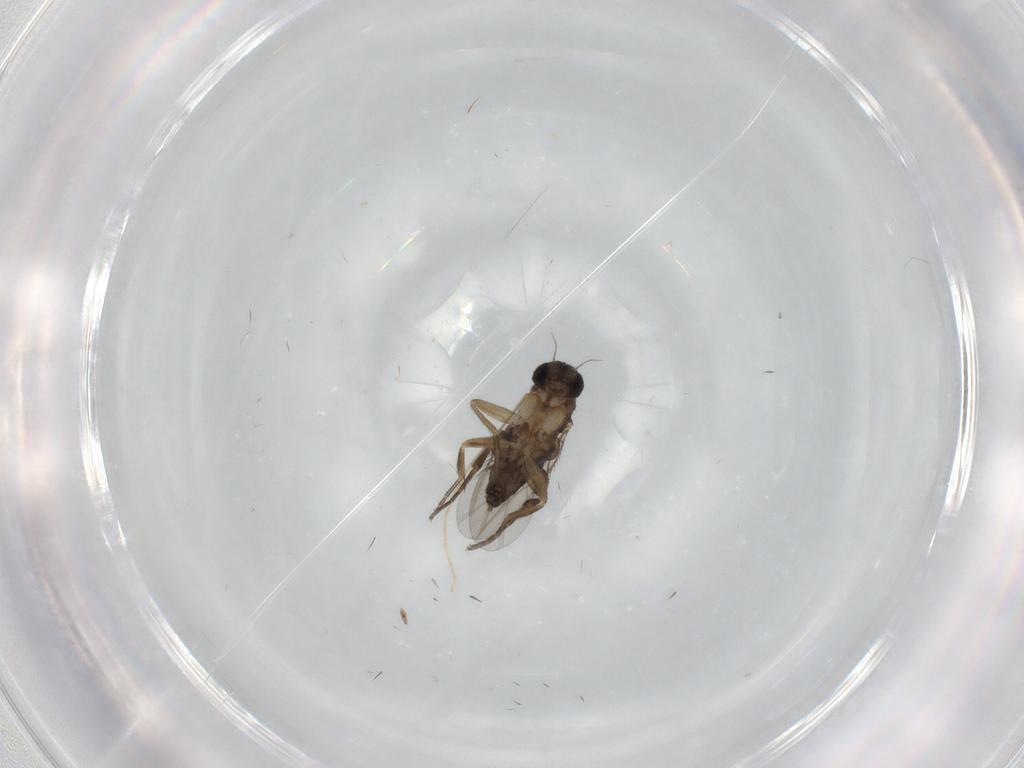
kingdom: Animalia
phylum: Arthropoda
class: Insecta
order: Diptera
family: Phoridae
